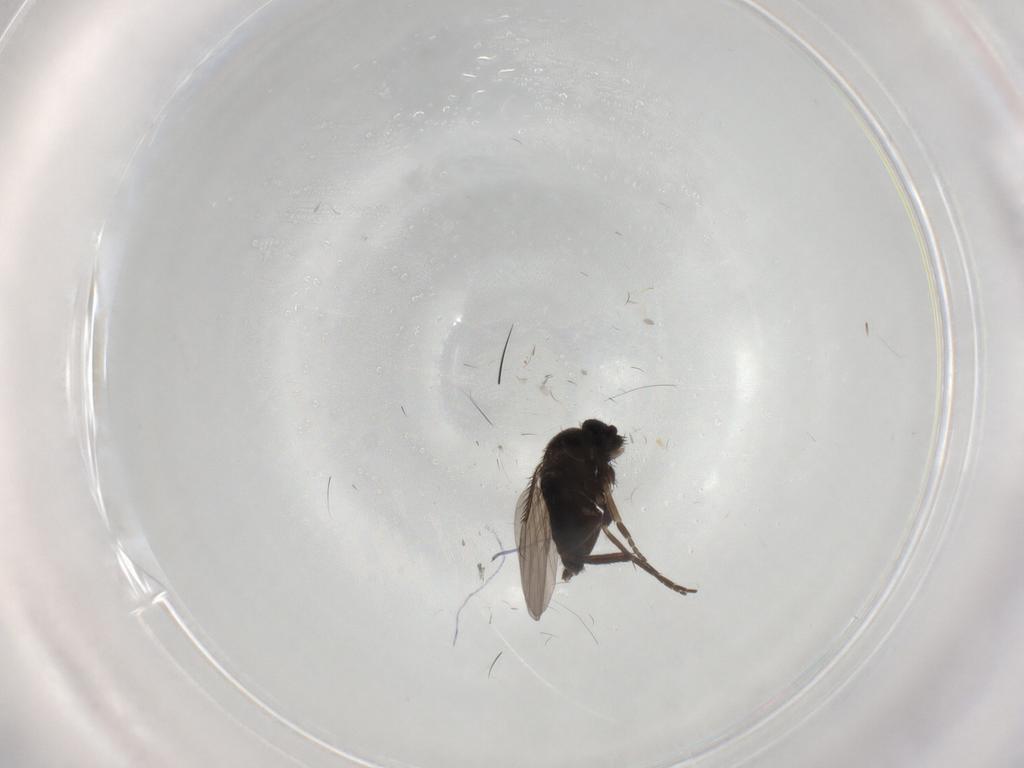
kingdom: Animalia
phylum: Arthropoda
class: Insecta
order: Diptera
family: Phoridae
